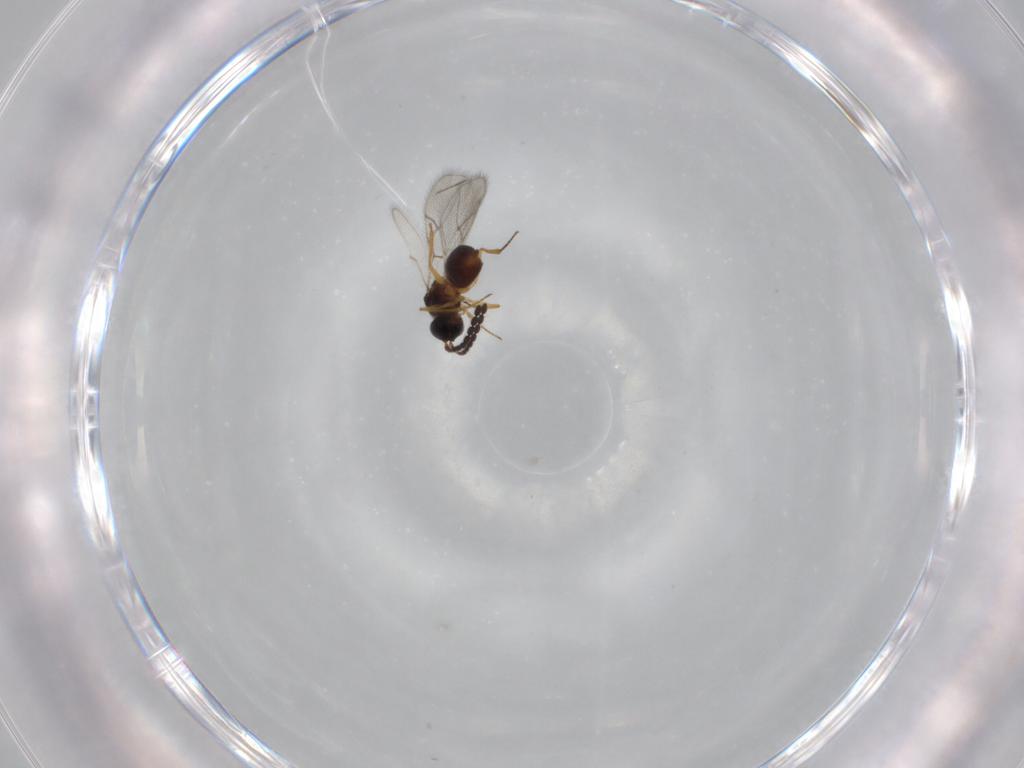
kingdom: Animalia
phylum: Arthropoda
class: Insecta
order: Hymenoptera
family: Figitidae
